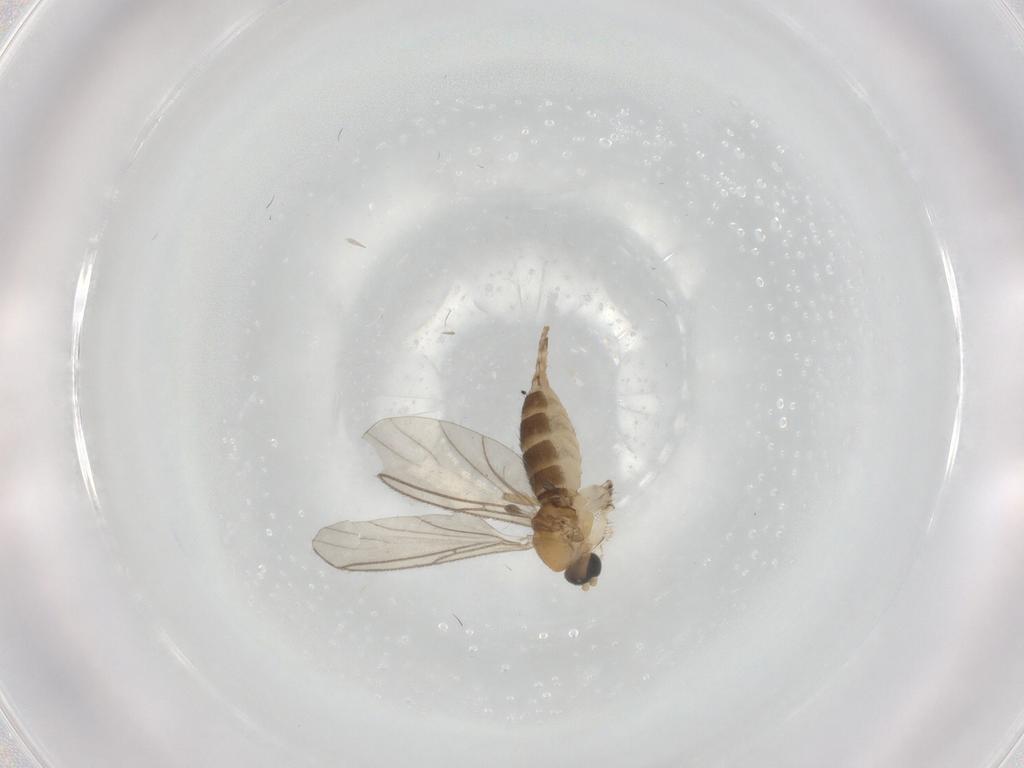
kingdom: Animalia
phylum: Arthropoda
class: Insecta
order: Diptera
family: Sciaridae
